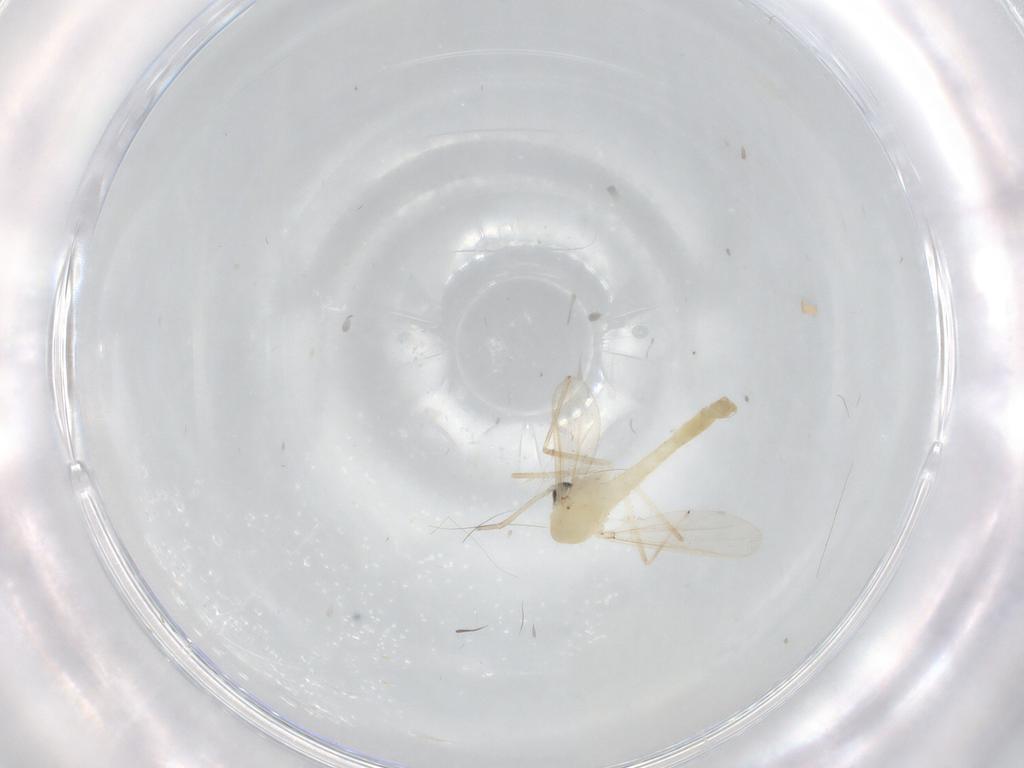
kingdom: Animalia
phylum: Arthropoda
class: Insecta
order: Diptera
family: Chironomidae
